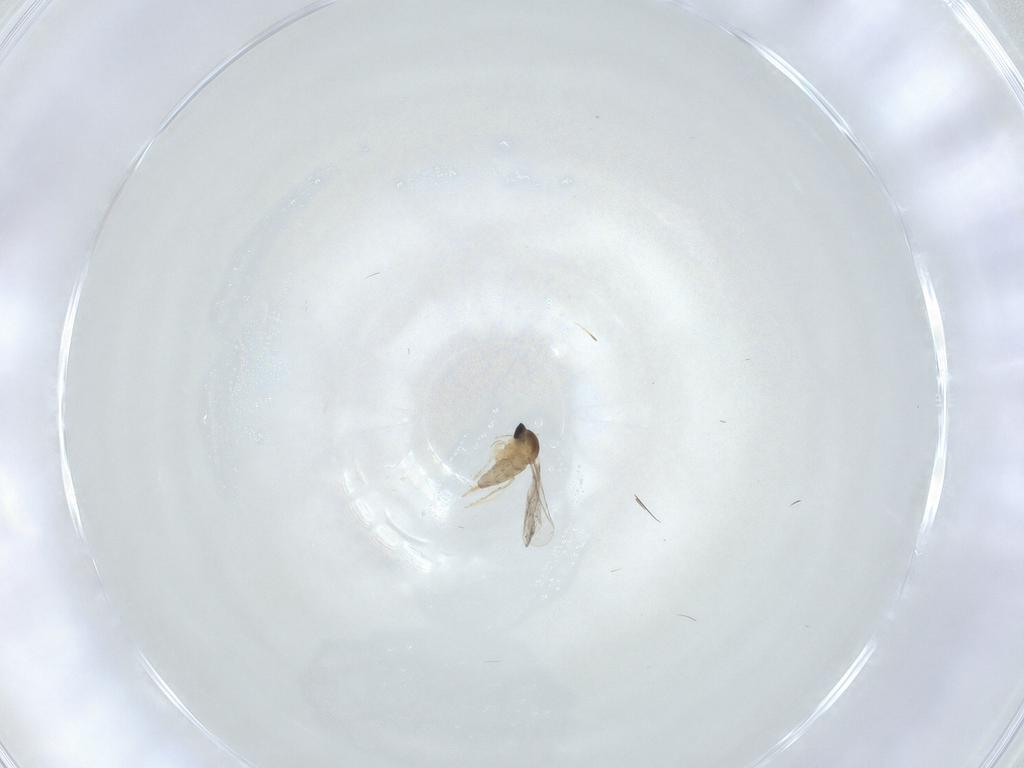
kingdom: Animalia
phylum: Arthropoda
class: Insecta
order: Diptera
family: Cecidomyiidae
